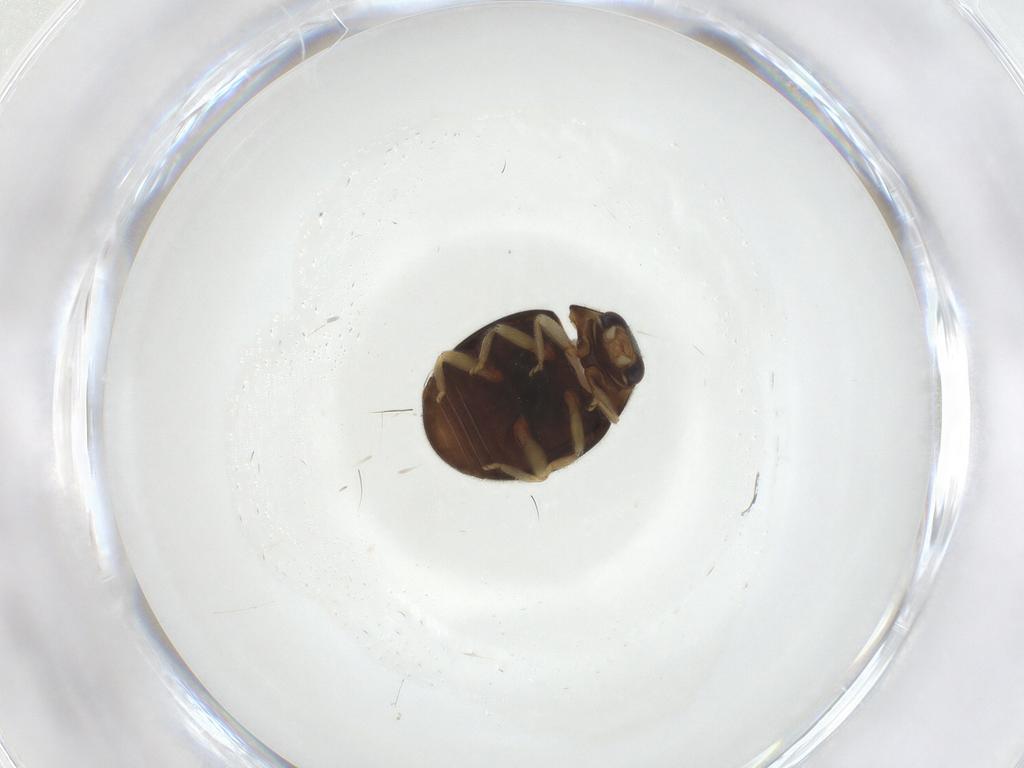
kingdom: Animalia
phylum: Arthropoda
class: Insecta
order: Coleoptera
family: Coccinellidae
